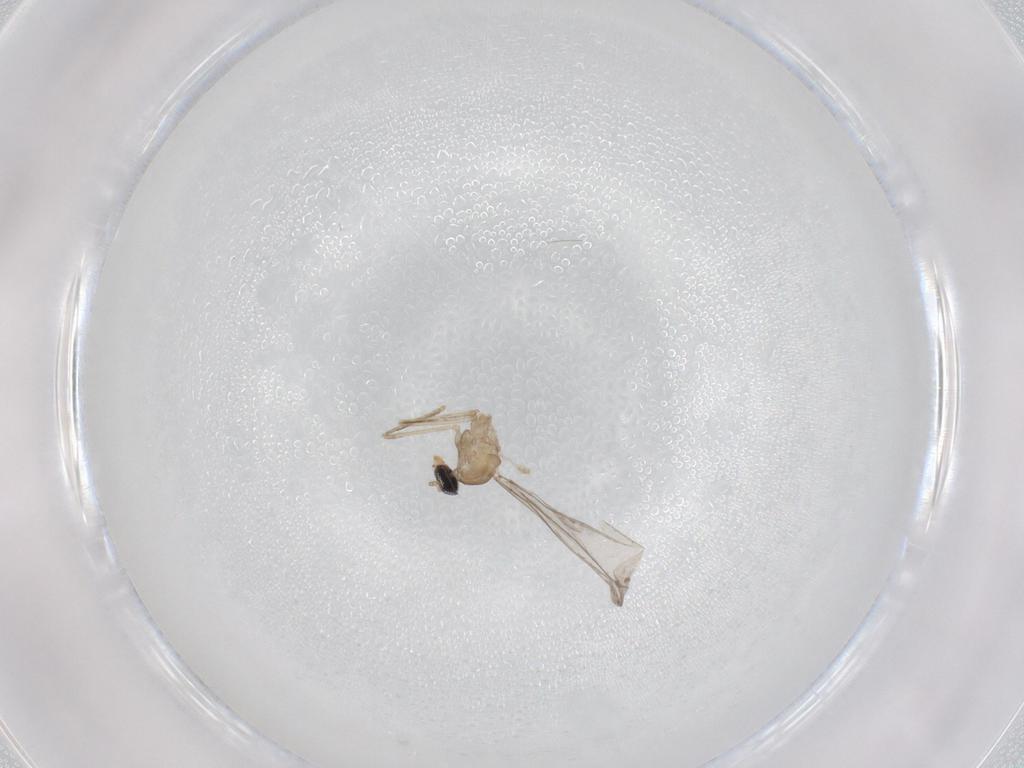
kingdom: Animalia
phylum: Arthropoda
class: Insecta
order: Diptera
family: Cecidomyiidae
